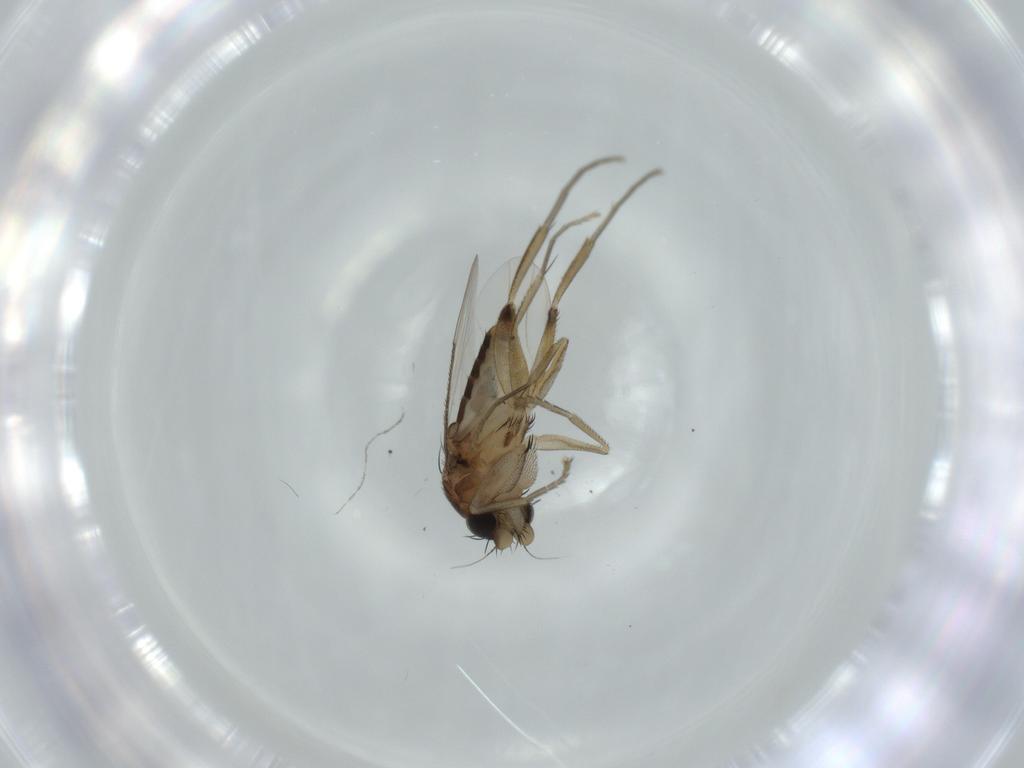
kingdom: Animalia
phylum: Arthropoda
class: Insecta
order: Diptera
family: Phoridae
